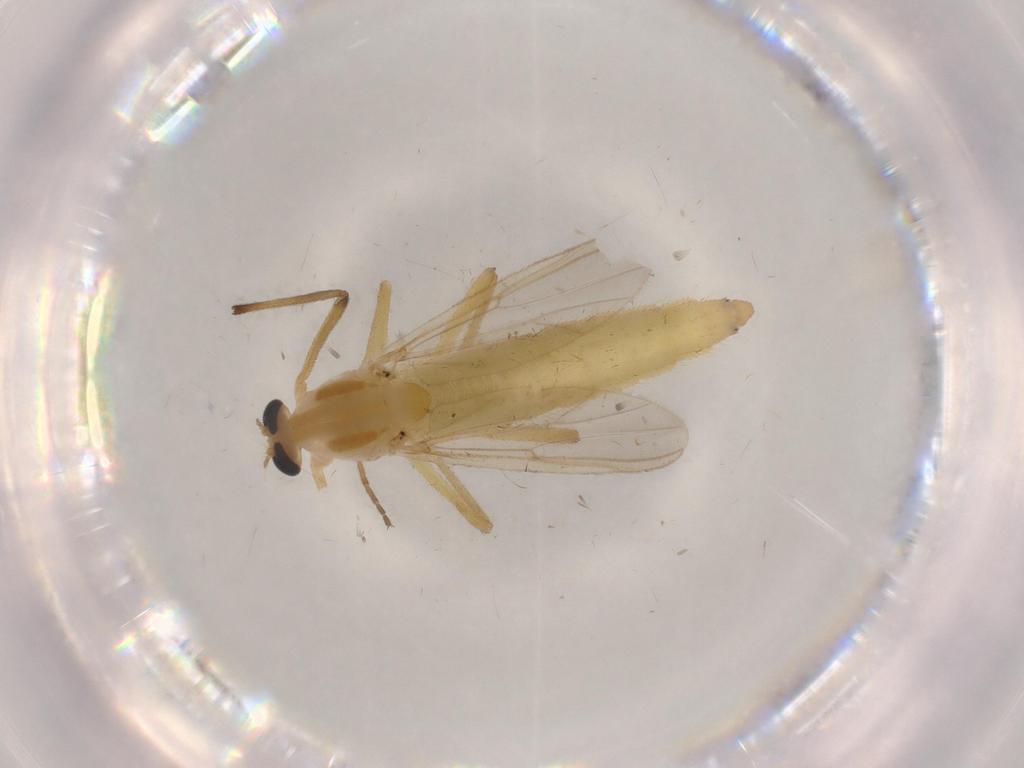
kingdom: Animalia
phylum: Arthropoda
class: Insecta
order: Diptera
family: Sciaridae
